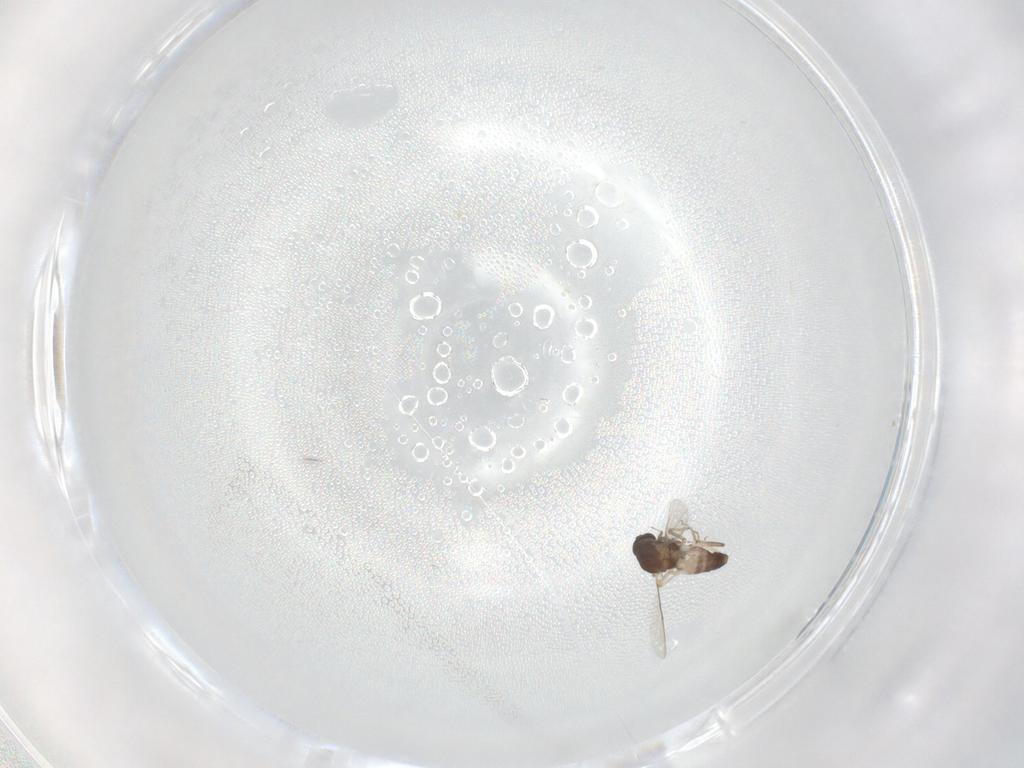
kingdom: Animalia
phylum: Arthropoda
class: Insecta
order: Diptera
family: Ceratopogonidae
